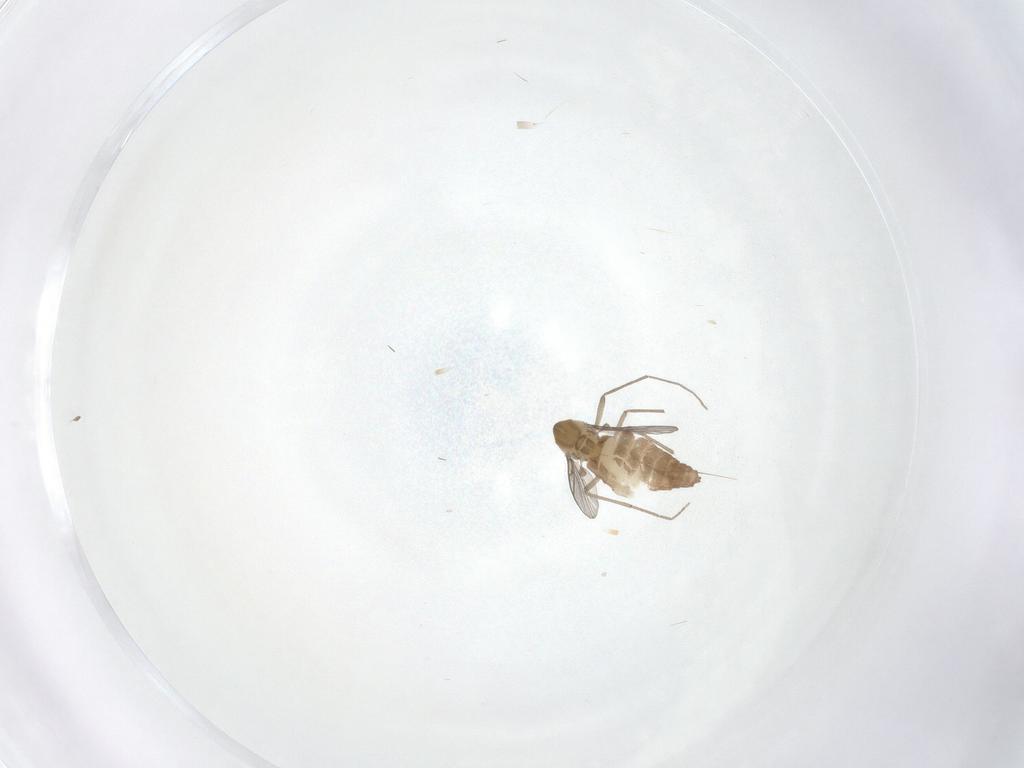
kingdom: Animalia
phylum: Arthropoda
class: Insecta
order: Diptera
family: Chironomidae
